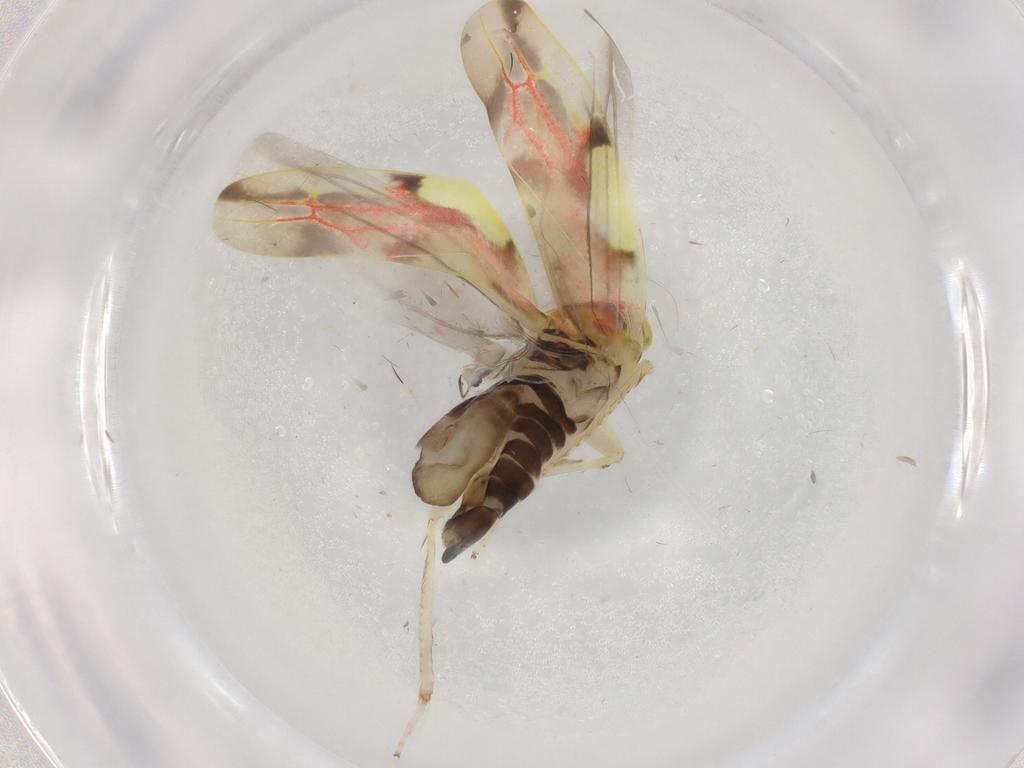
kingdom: Animalia
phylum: Arthropoda
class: Insecta
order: Hemiptera
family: Cicadellidae
